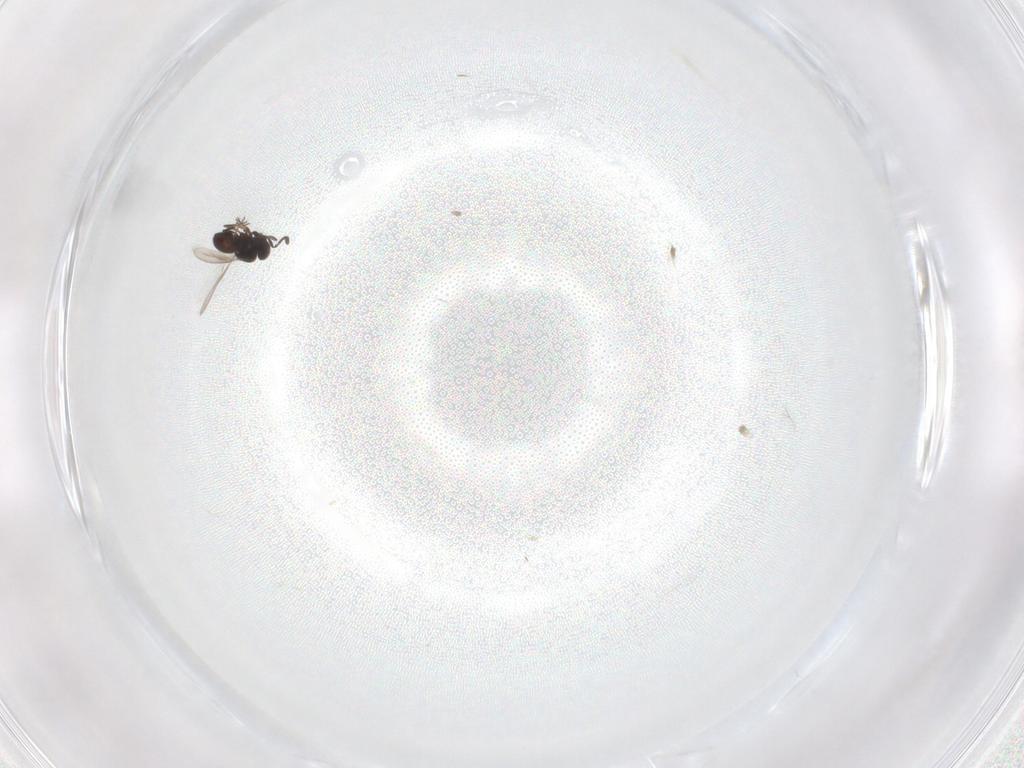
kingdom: Animalia
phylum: Arthropoda
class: Insecta
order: Hymenoptera
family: Scelionidae
